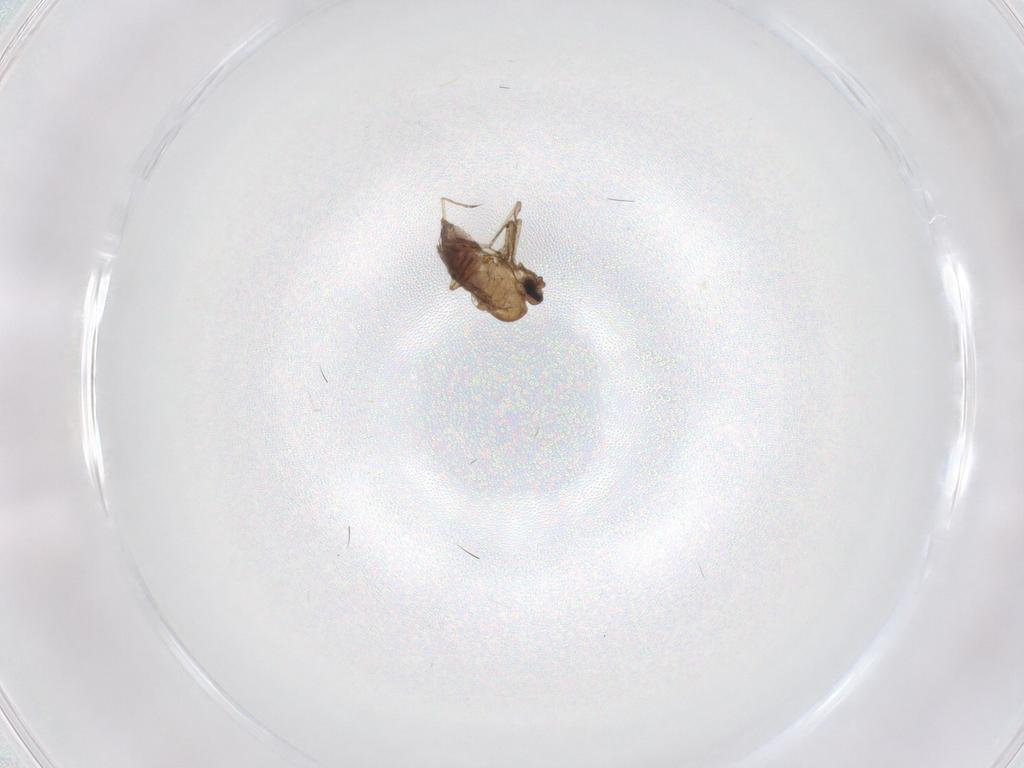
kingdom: Animalia
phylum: Arthropoda
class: Insecta
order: Diptera
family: Ceratopogonidae
